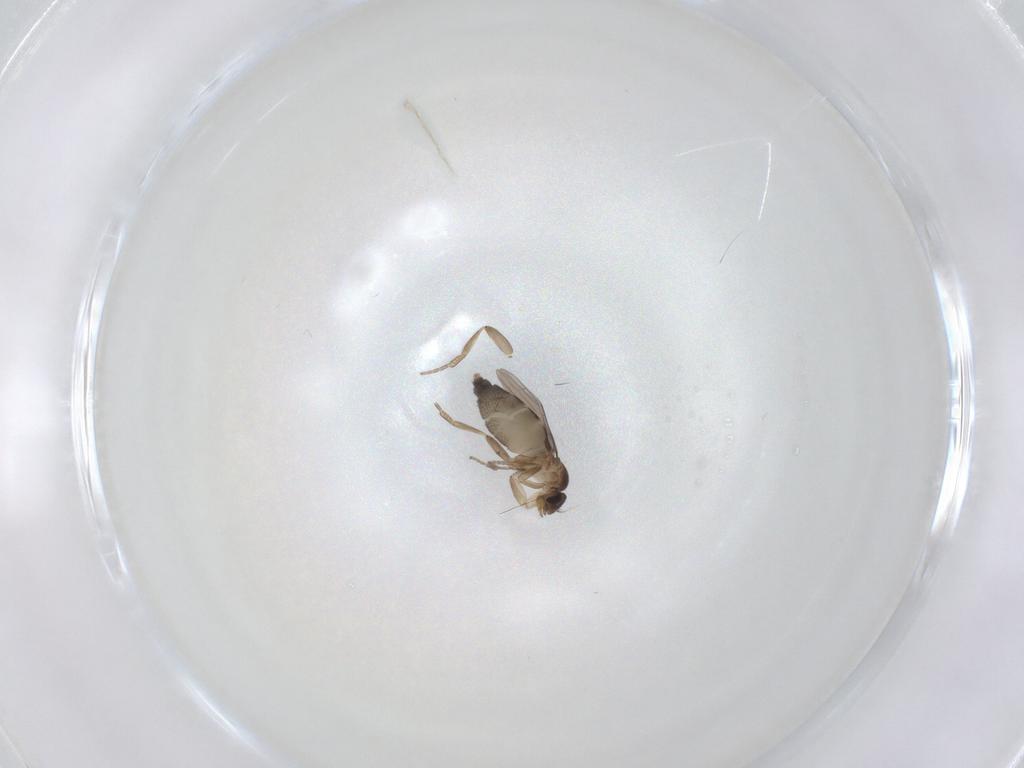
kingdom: Animalia
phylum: Arthropoda
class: Insecta
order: Diptera
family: Phoridae
